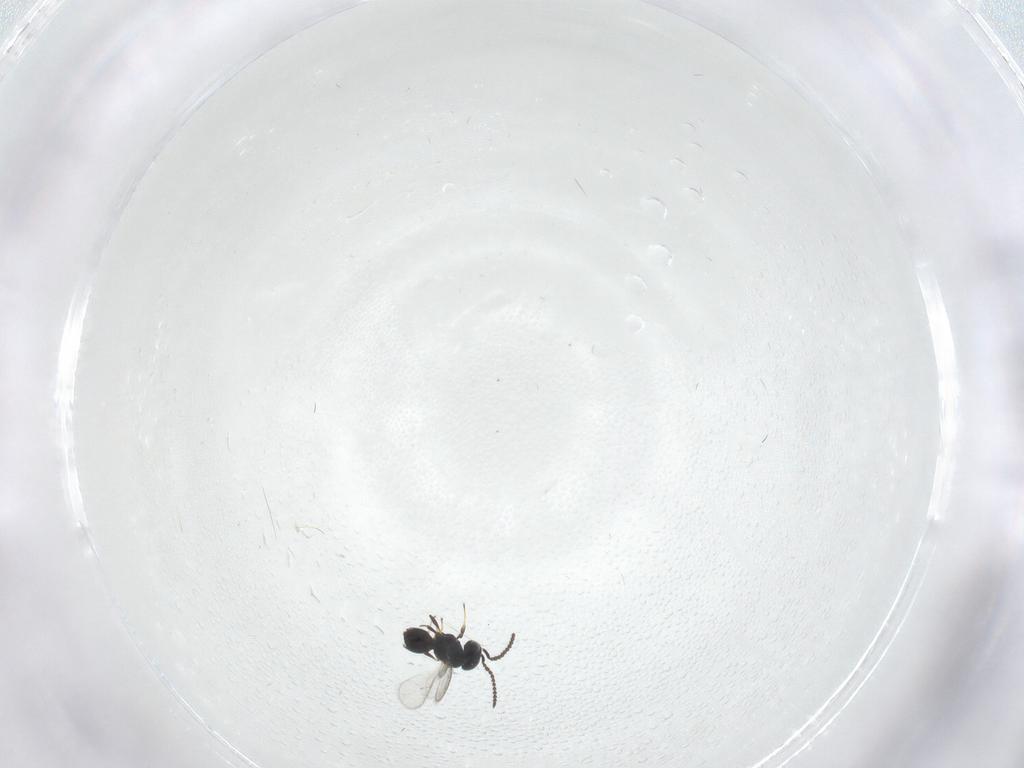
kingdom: Animalia
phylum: Arthropoda
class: Insecta
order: Hymenoptera
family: Scelionidae
